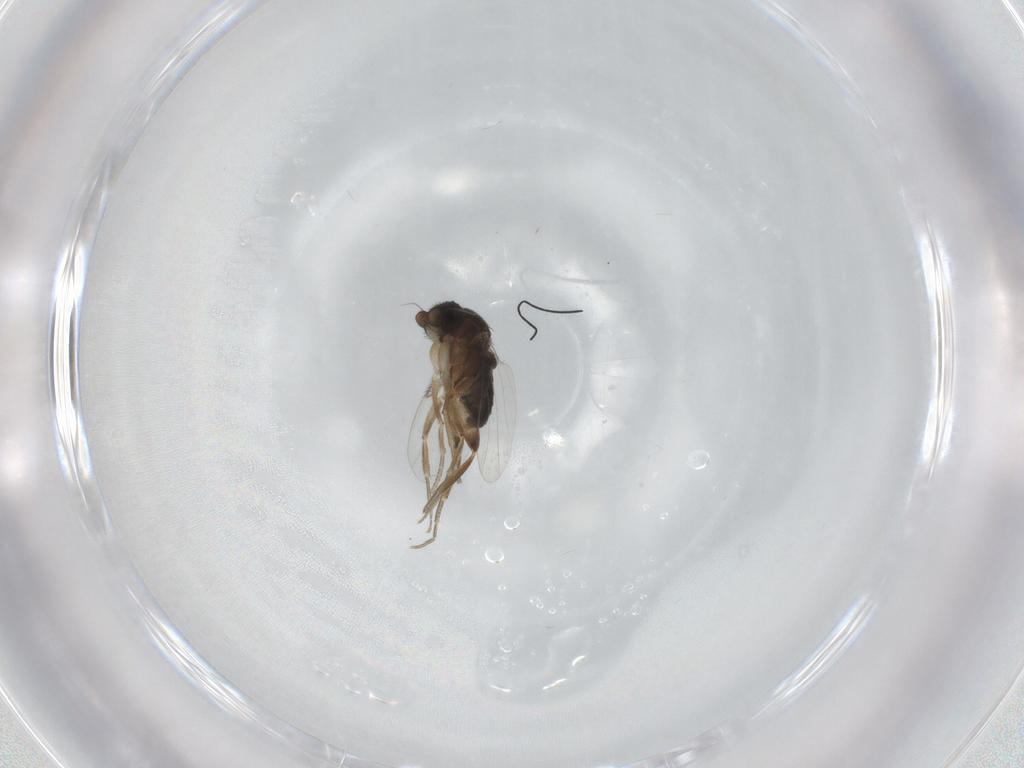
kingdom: Animalia
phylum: Arthropoda
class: Insecta
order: Diptera
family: Phoridae
